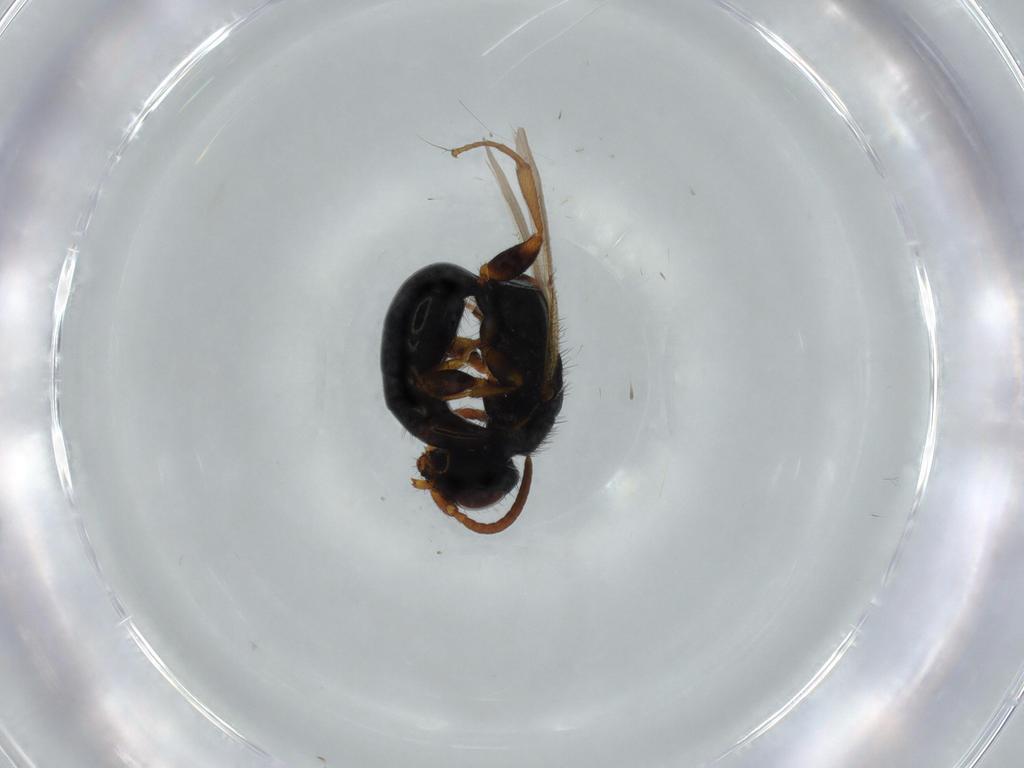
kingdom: Animalia
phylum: Arthropoda
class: Insecta
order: Hymenoptera
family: Bethylidae
